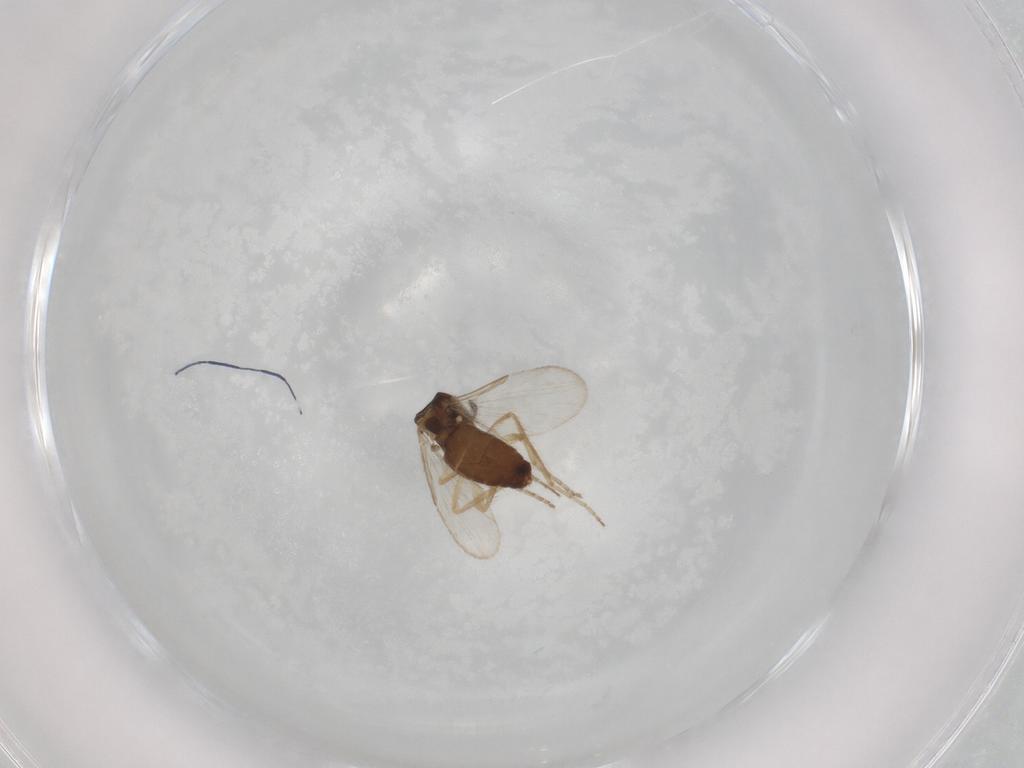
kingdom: Animalia
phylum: Arthropoda
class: Insecta
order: Diptera
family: Ceratopogonidae
